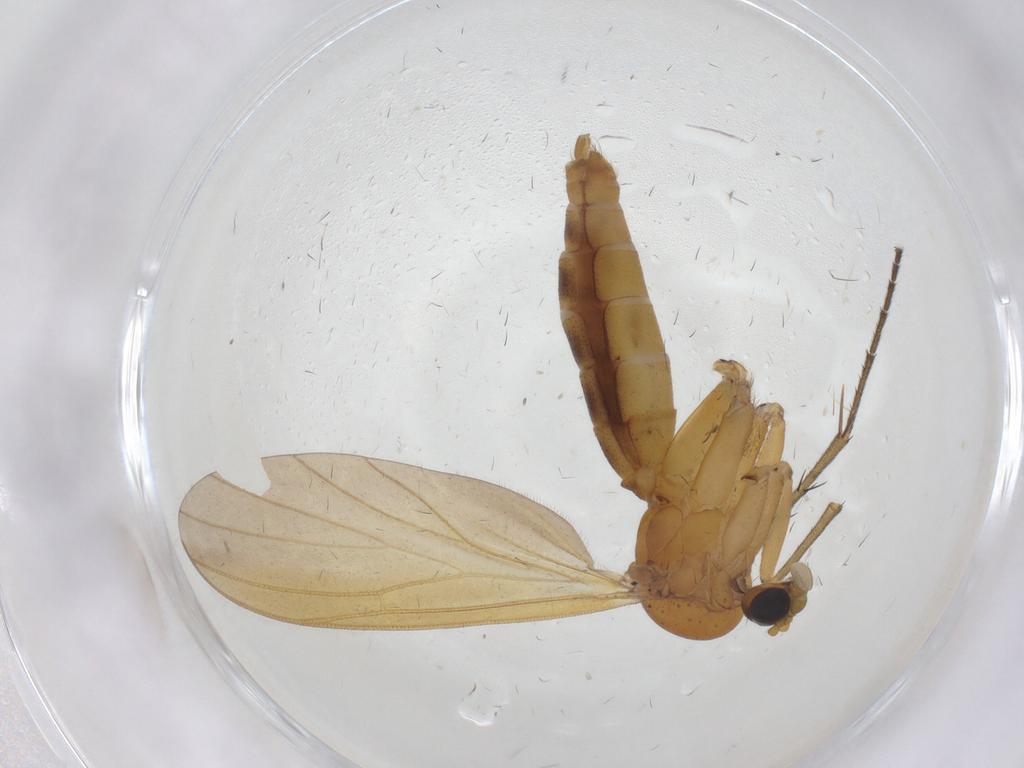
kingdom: Animalia
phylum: Arthropoda
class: Insecta
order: Diptera
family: Mycetophilidae
